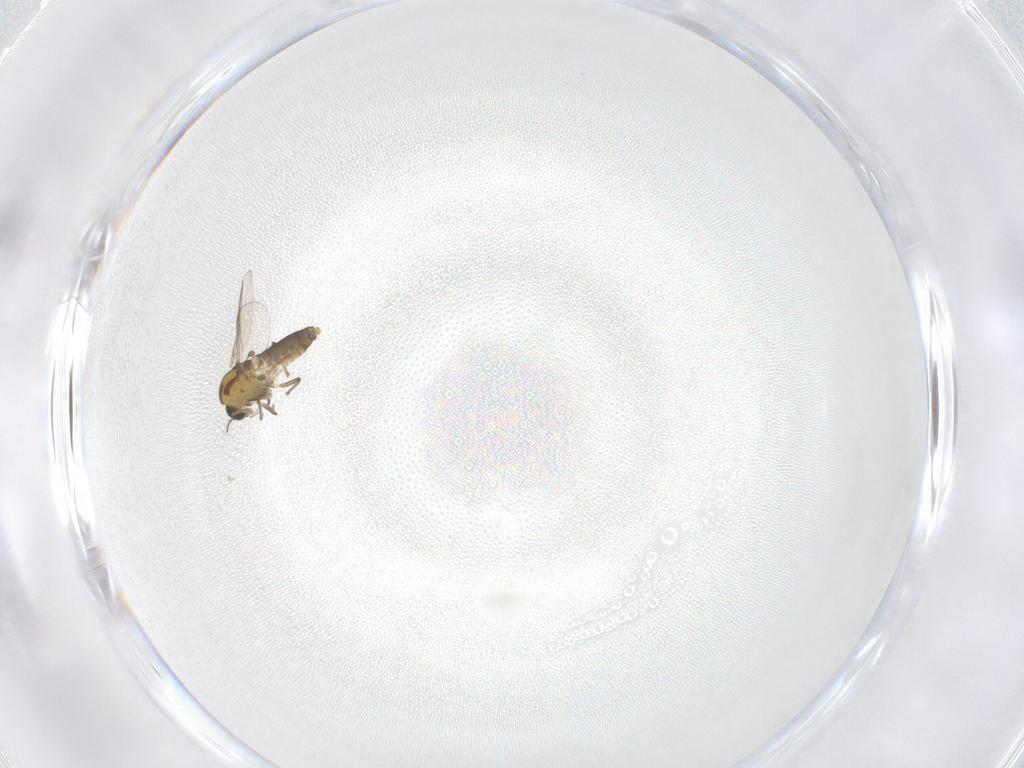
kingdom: Animalia
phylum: Arthropoda
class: Insecta
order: Diptera
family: Chironomidae
